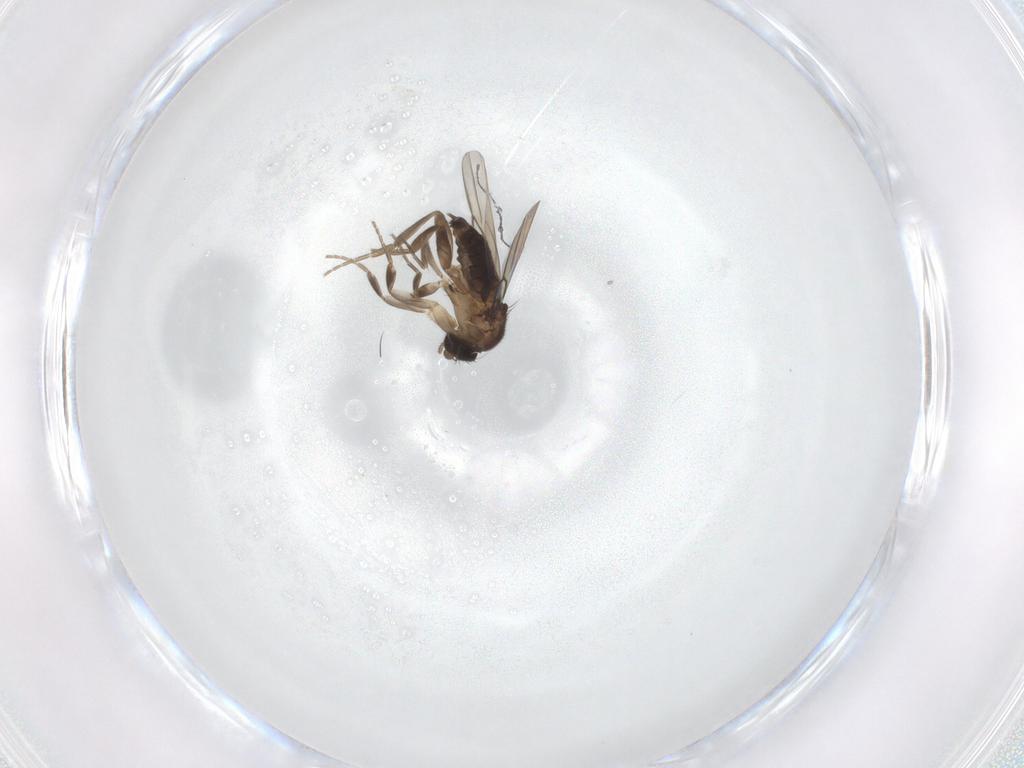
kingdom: Animalia
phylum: Arthropoda
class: Insecta
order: Diptera
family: Phoridae
